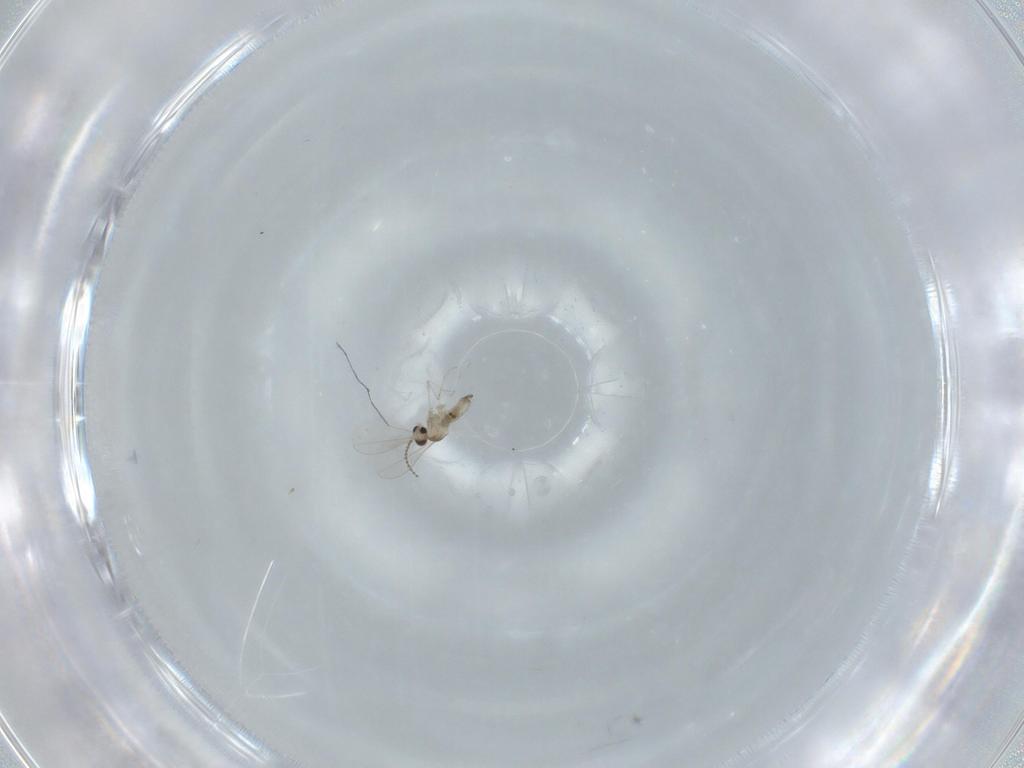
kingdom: Animalia
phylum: Arthropoda
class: Insecta
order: Diptera
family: Cecidomyiidae
